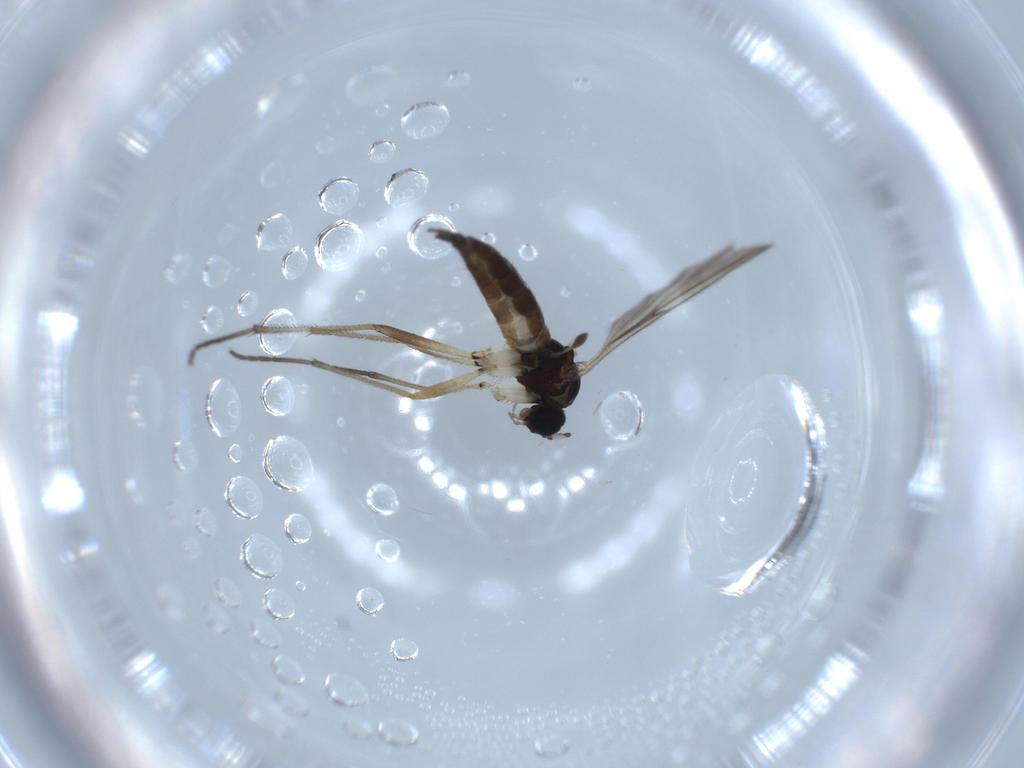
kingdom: Animalia
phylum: Arthropoda
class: Insecta
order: Diptera
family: Sciaridae
